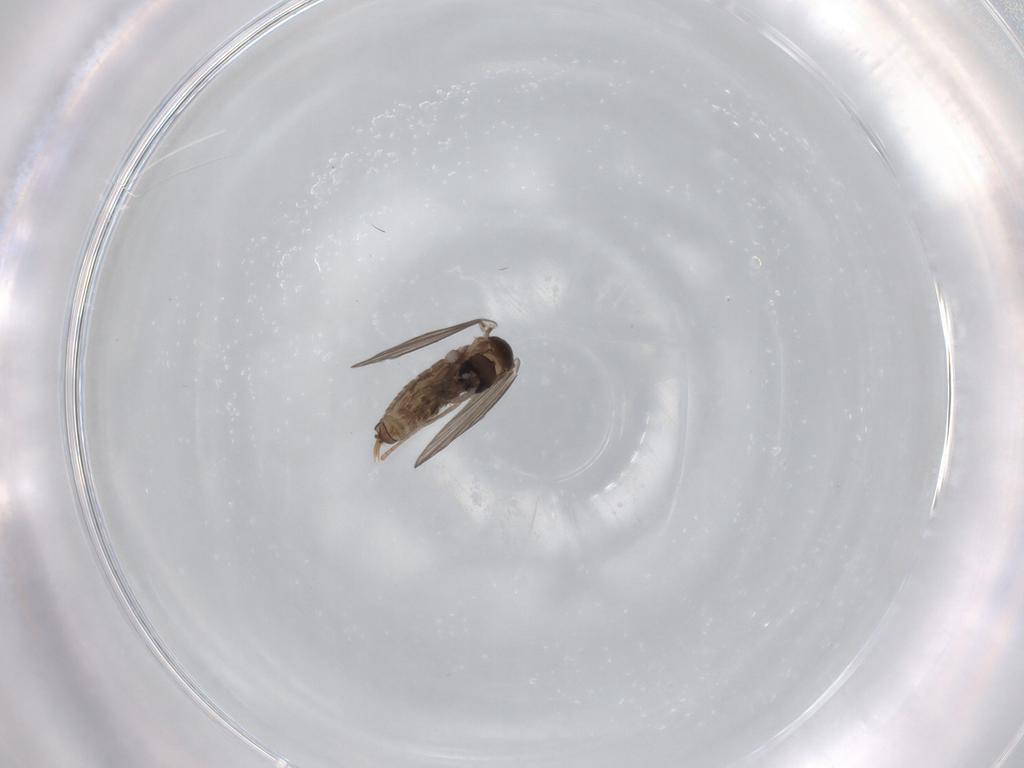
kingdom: Animalia
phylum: Arthropoda
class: Insecta
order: Diptera
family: Psychodidae
